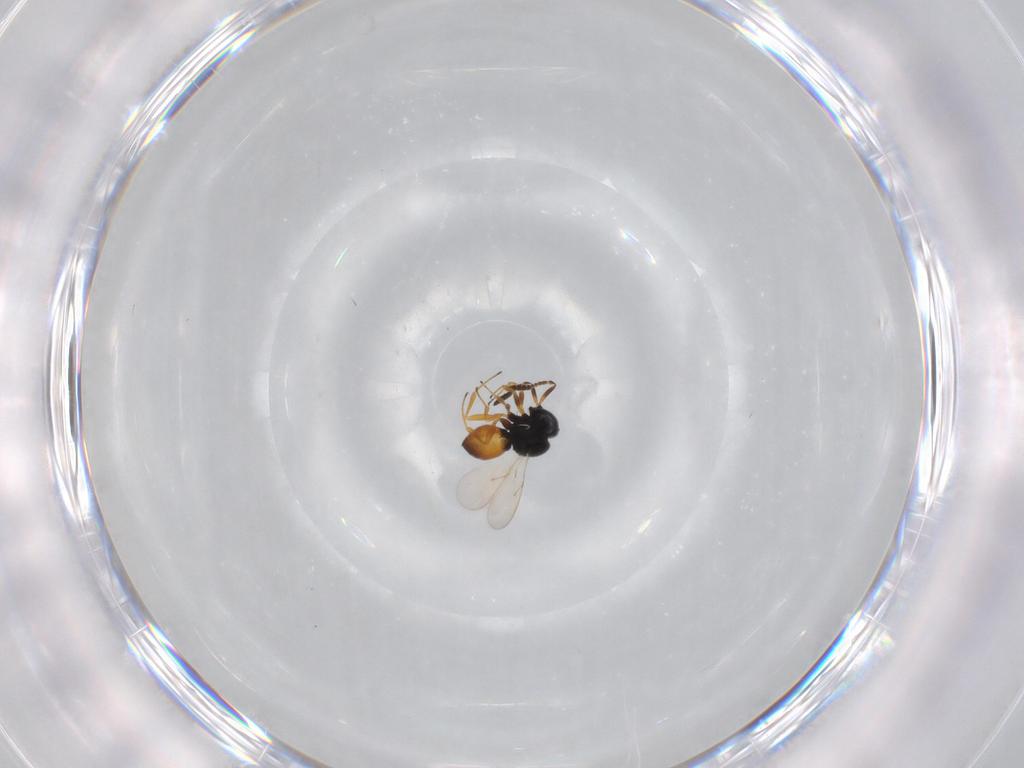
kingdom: Animalia
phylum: Arthropoda
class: Insecta
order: Hymenoptera
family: Scelionidae
